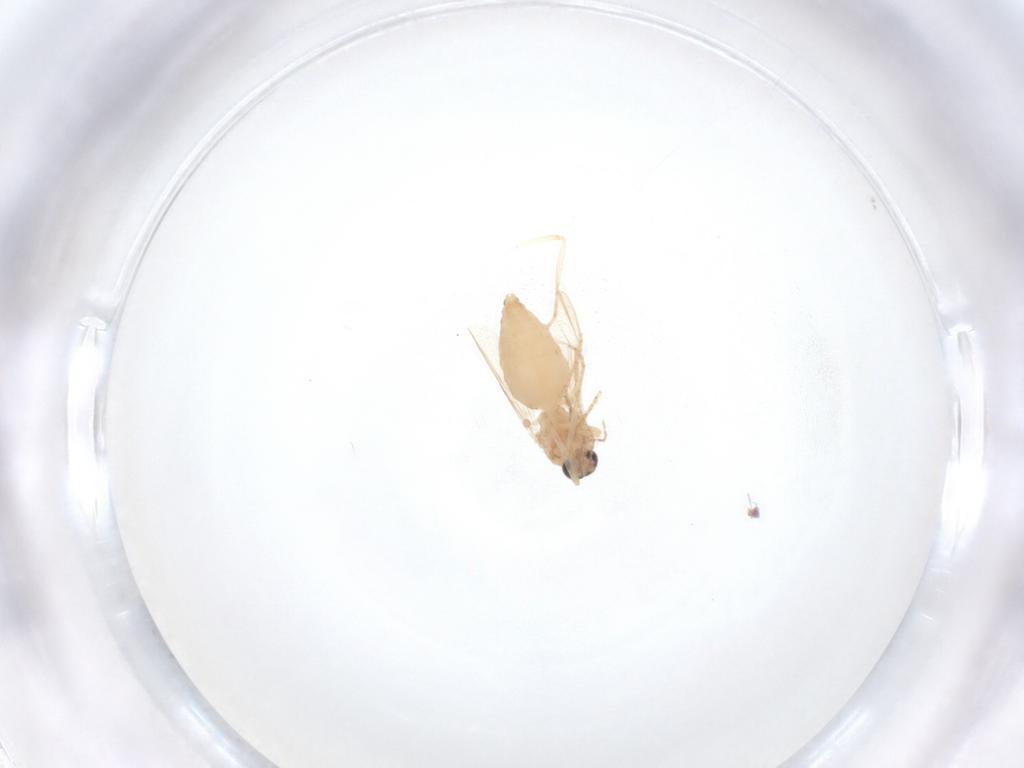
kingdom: Animalia
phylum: Arthropoda
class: Insecta
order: Diptera
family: Ceratopogonidae
